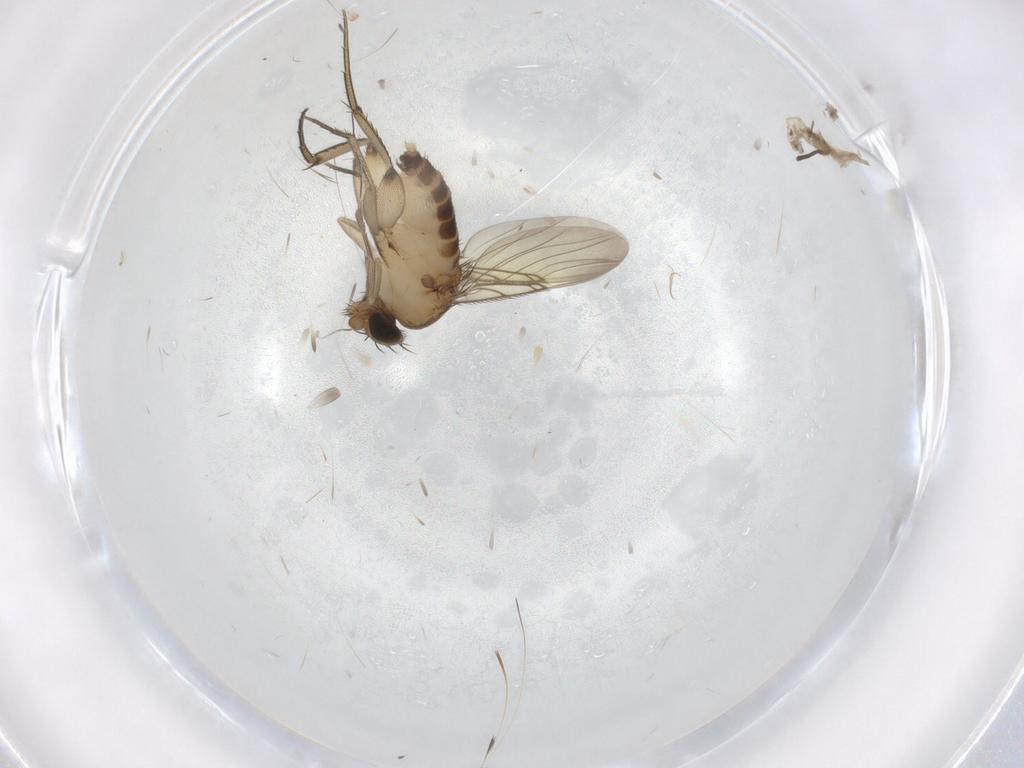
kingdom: Animalia
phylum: Arthropoda
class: Insecta
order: Diptera
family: Phoridae
